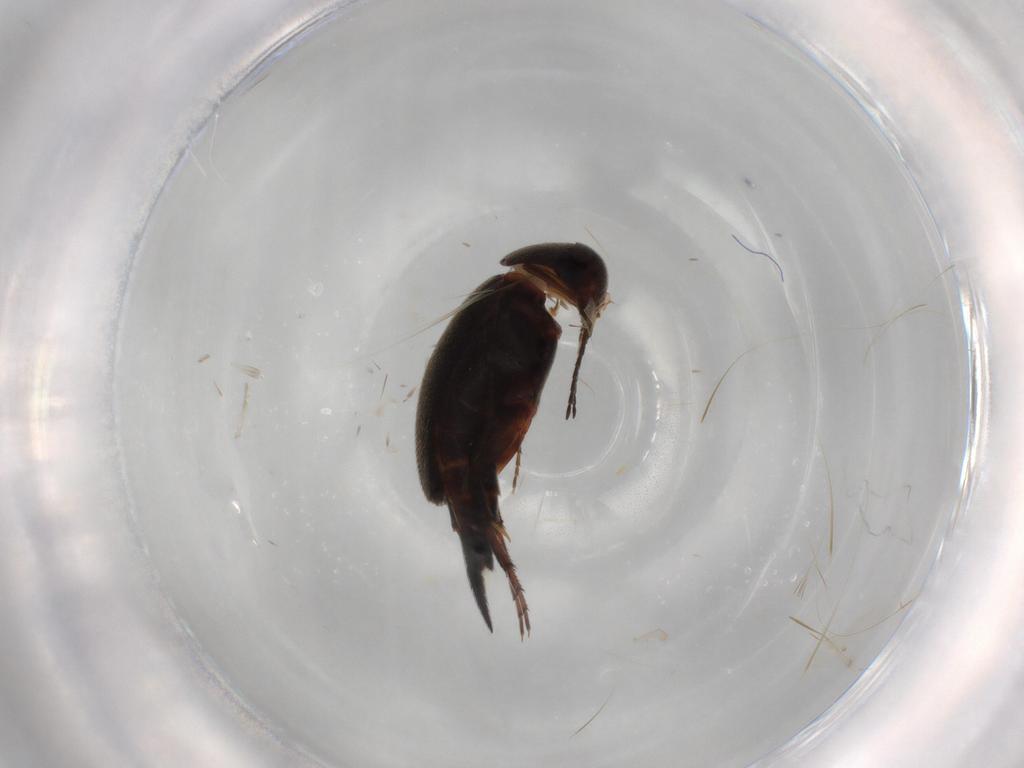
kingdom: Animalia
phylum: Arthropoda
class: Insecta
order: Coleoptera
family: Mordellidae
